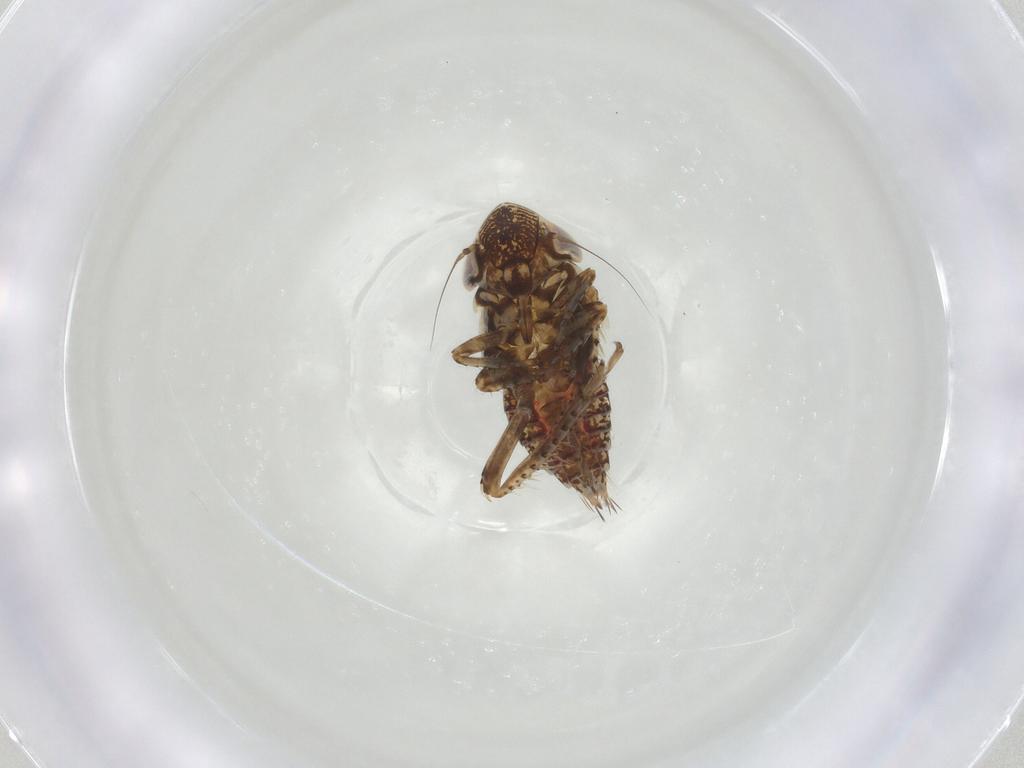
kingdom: Animalia
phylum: Arthropoda
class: Insecta
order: Hemiptera
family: Cicadellidae
